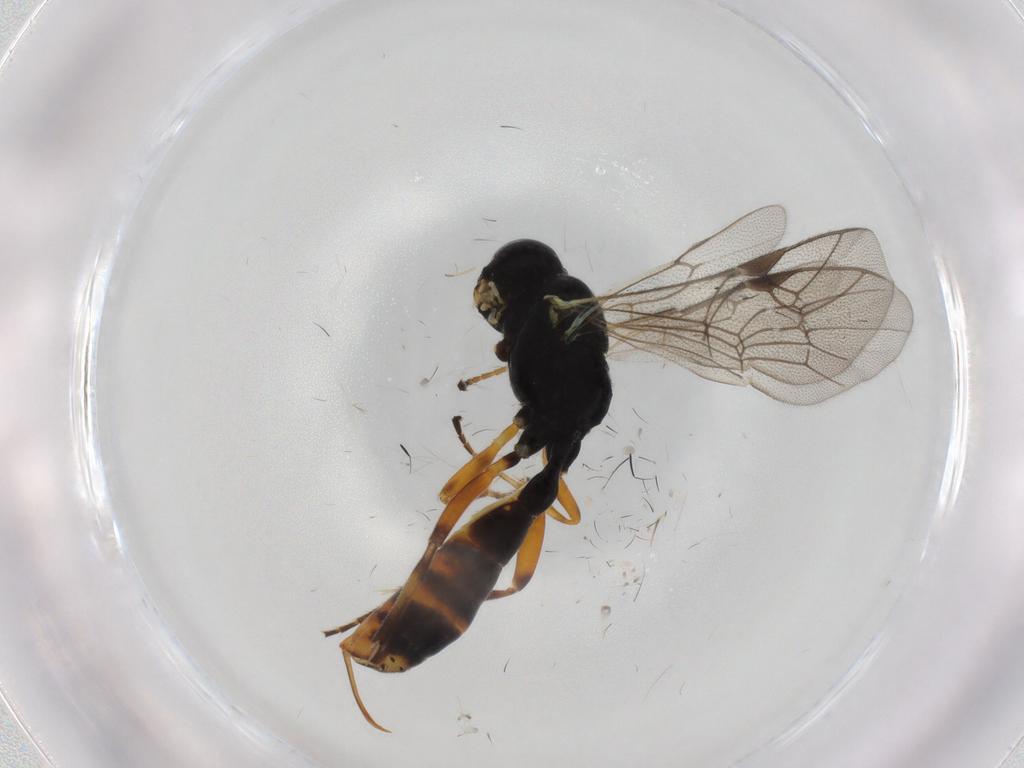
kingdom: Animalia
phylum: Arthropoda
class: Insecta
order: Hymenoptera
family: Ichneumonidae
